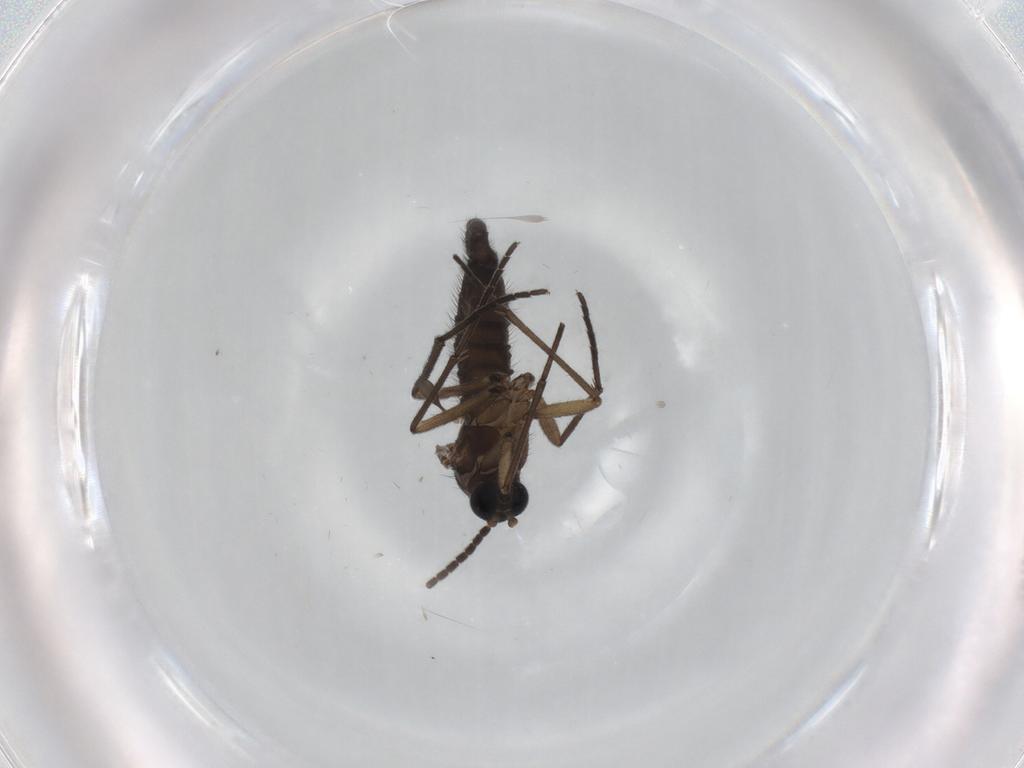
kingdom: Animalia
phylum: Arthropoda
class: Insecta
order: Diptera
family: Sciaridae
